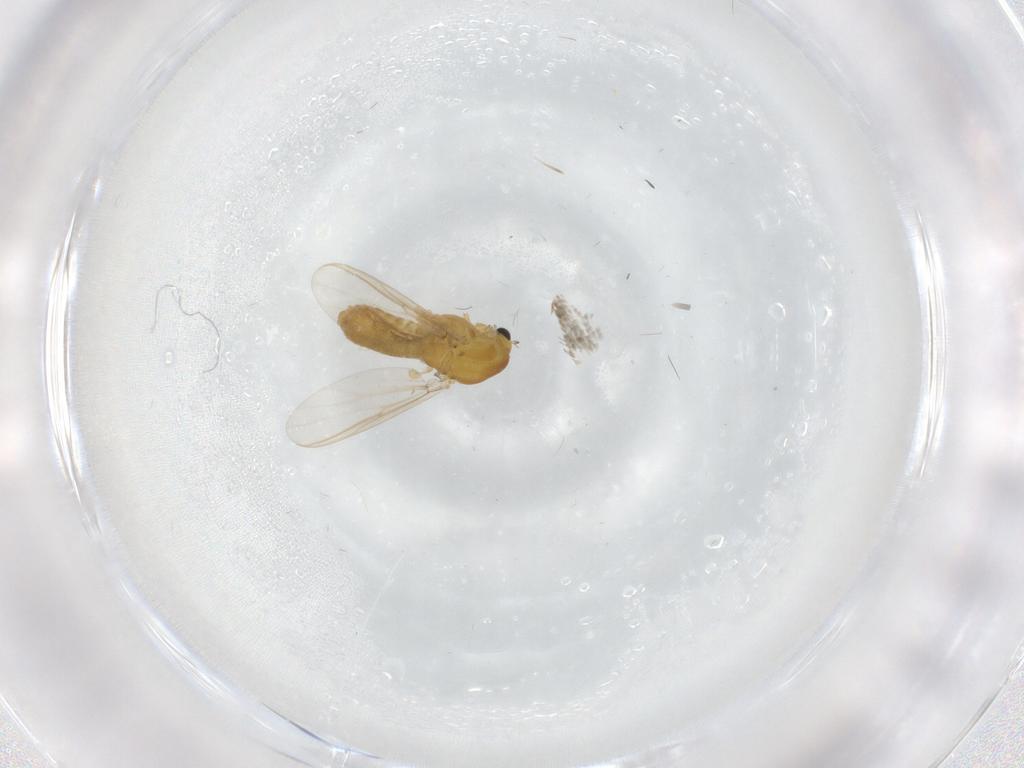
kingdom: Animalia
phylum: Arthropoda
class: Insecta
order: Diptera
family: Chironomidae
